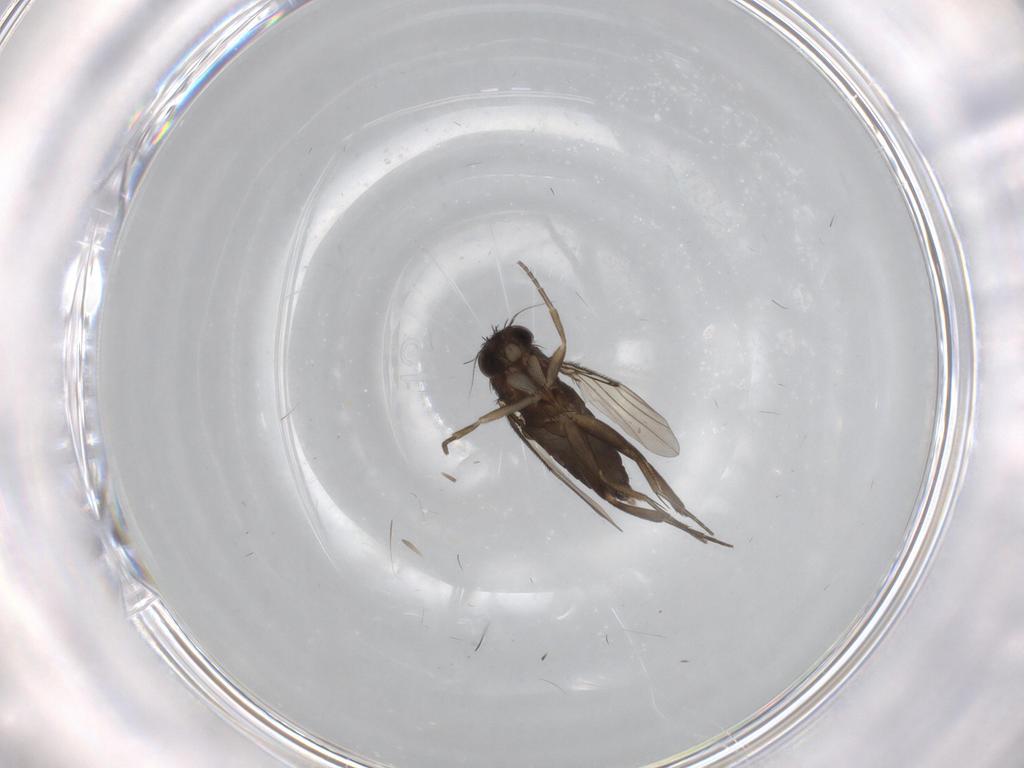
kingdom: Animalia
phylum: Arthropoda
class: Insecta
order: Diptera
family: Phoridae
